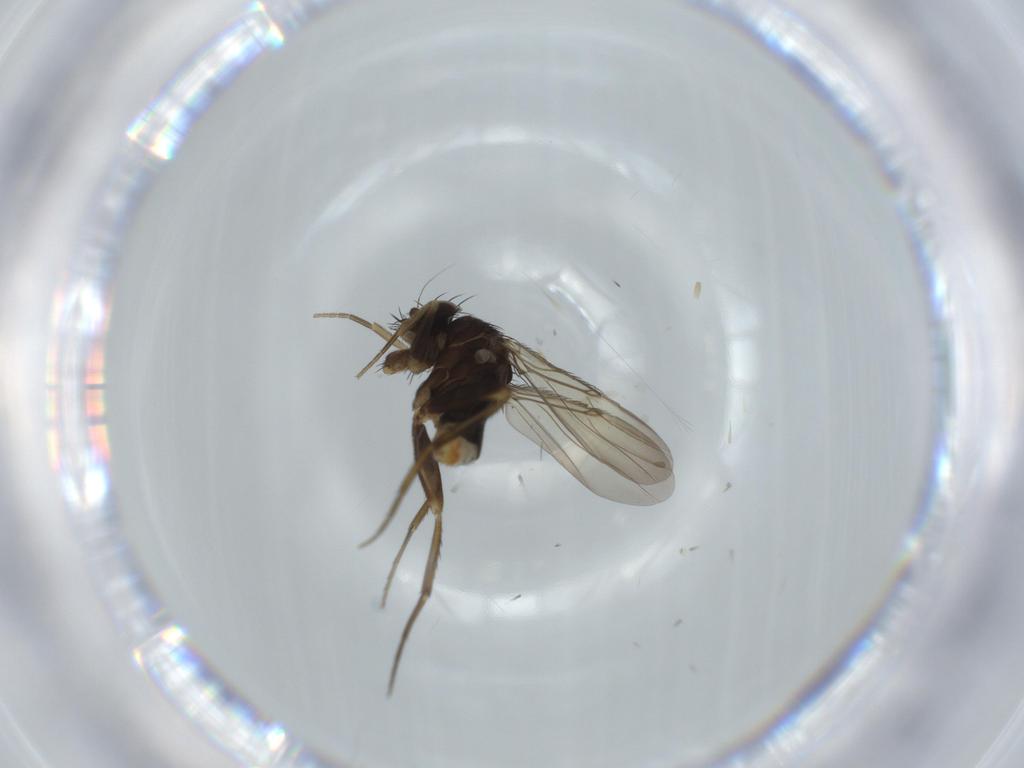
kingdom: Animalia
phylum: Arthropoda
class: Insecta
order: Diptera
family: Phoridae
